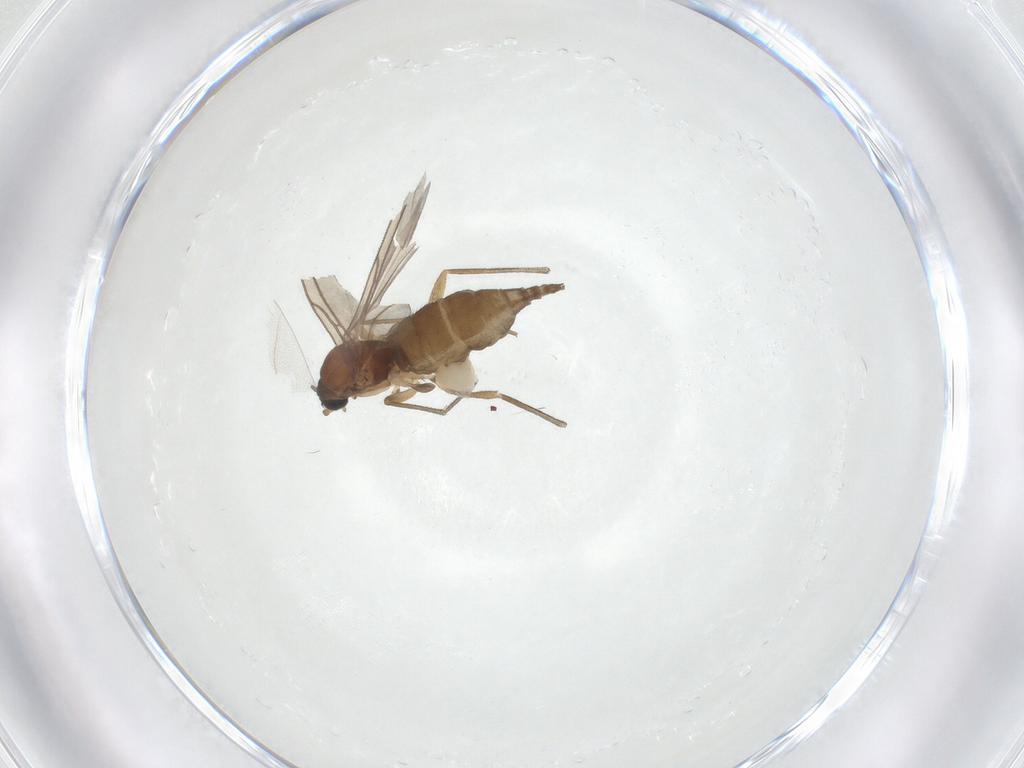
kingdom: Animalia
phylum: Arthropoda
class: Insecta
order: Diptera
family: Sciaridae
